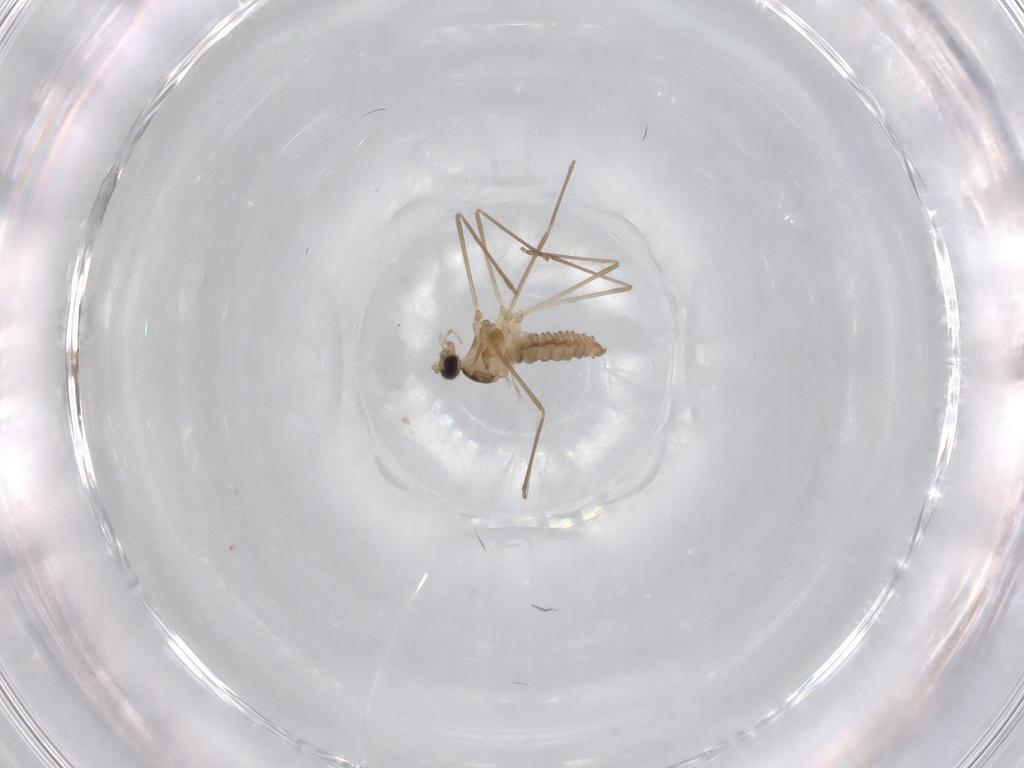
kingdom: Animalia
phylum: Arthropoda
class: Insecta
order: Diptera
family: Cecidomyiidae
